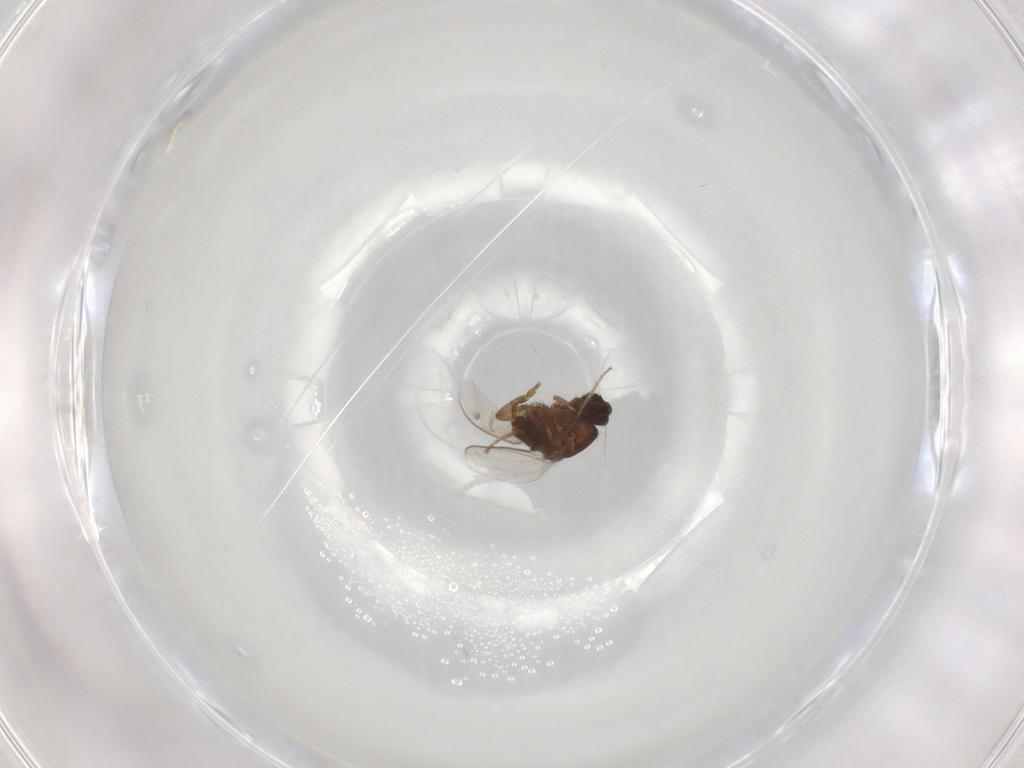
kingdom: Animalia
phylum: Arthropoda
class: Insecta
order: Diptera
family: Sphaeroceridae
